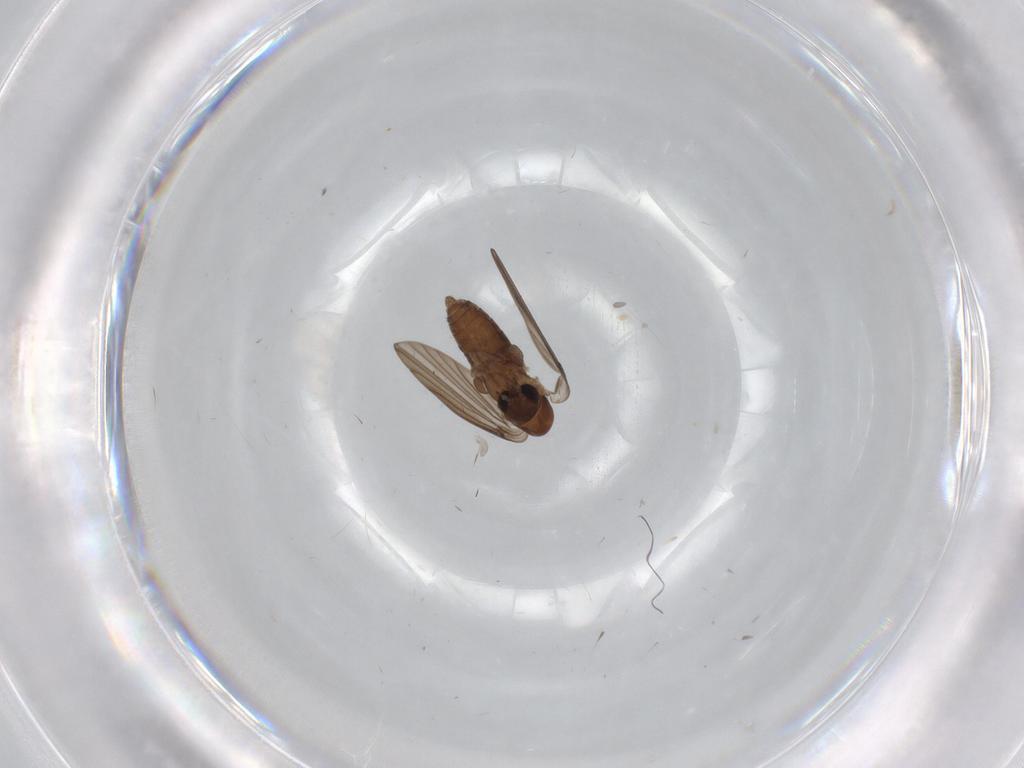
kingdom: Animalia
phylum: Arthropoda
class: Insecta
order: Diptera
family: Psychodidae
